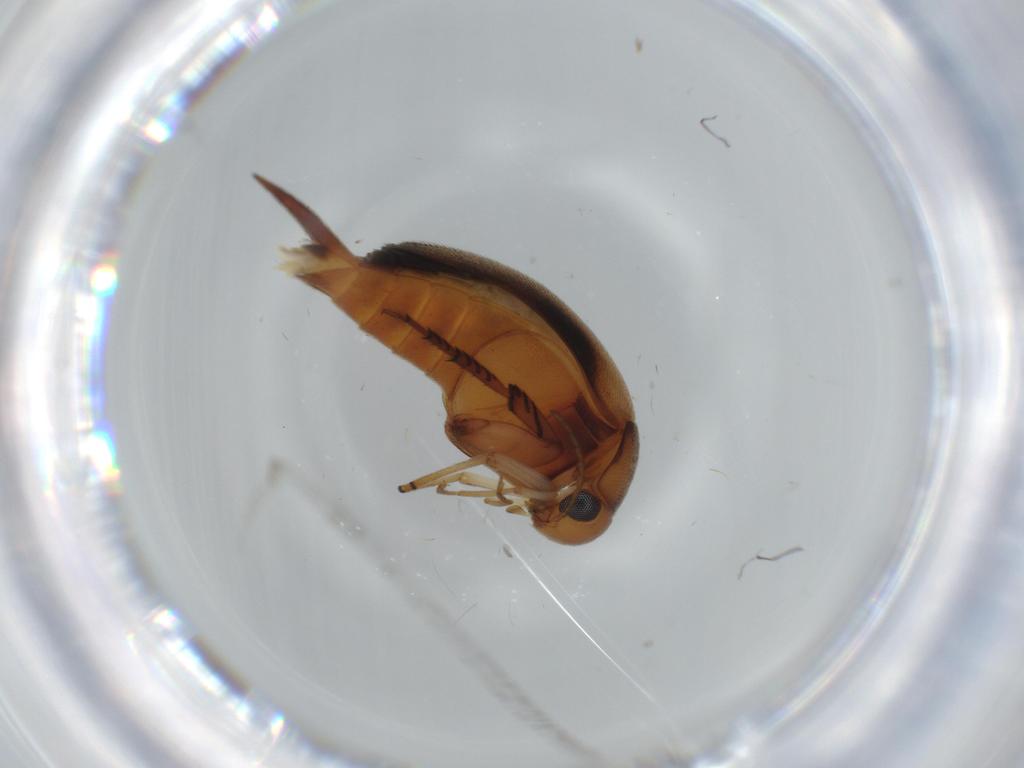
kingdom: Animalia
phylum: Arthropoda
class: Insecta
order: Coleoptera
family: Mordellidae
